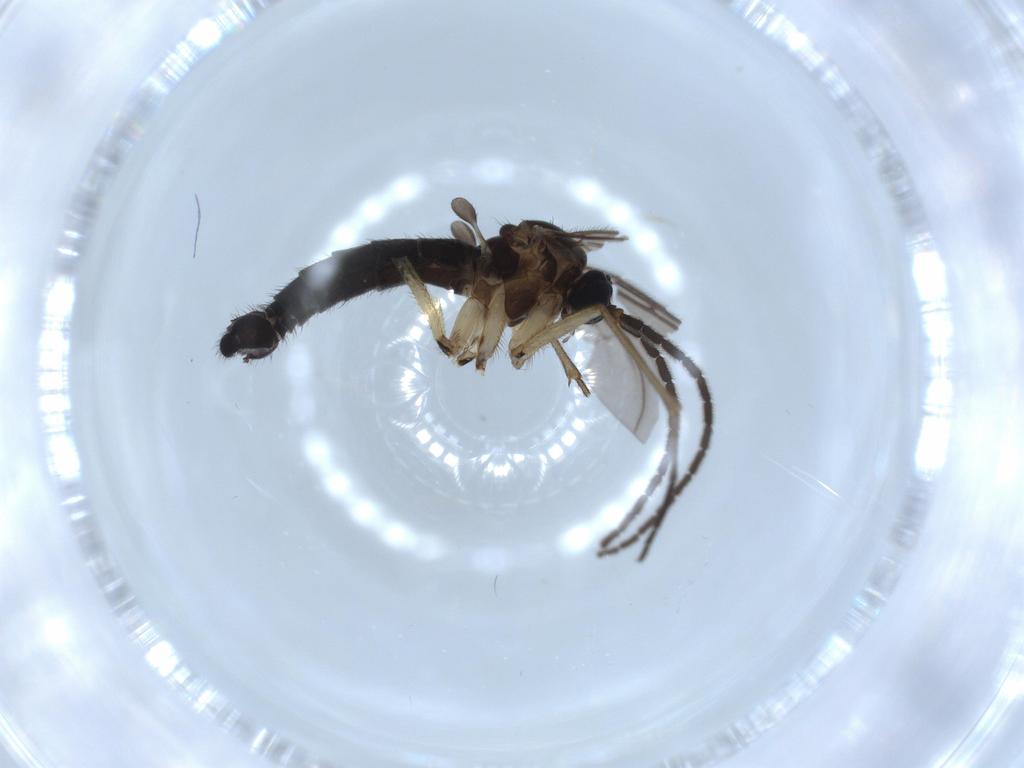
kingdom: Animalia
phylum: Arthropoda
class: Insecta
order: Diptera
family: Sciaridae
